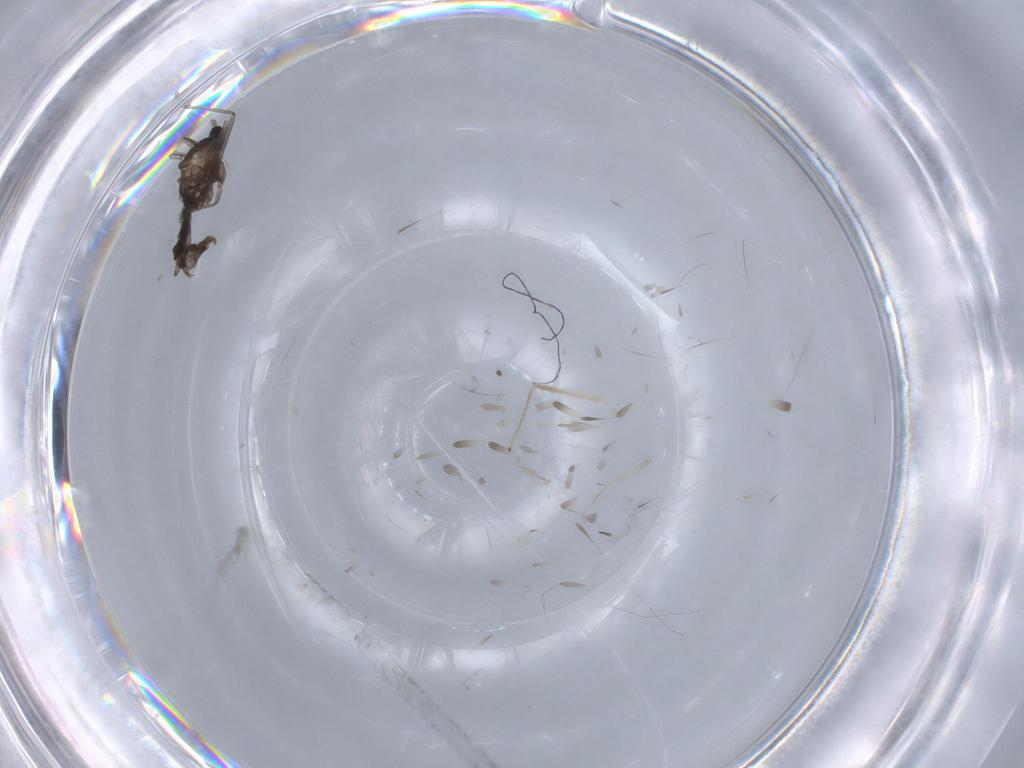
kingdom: Animalia
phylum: Arthropoda
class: Insecta
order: Diptera
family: Cecidomyiidae
